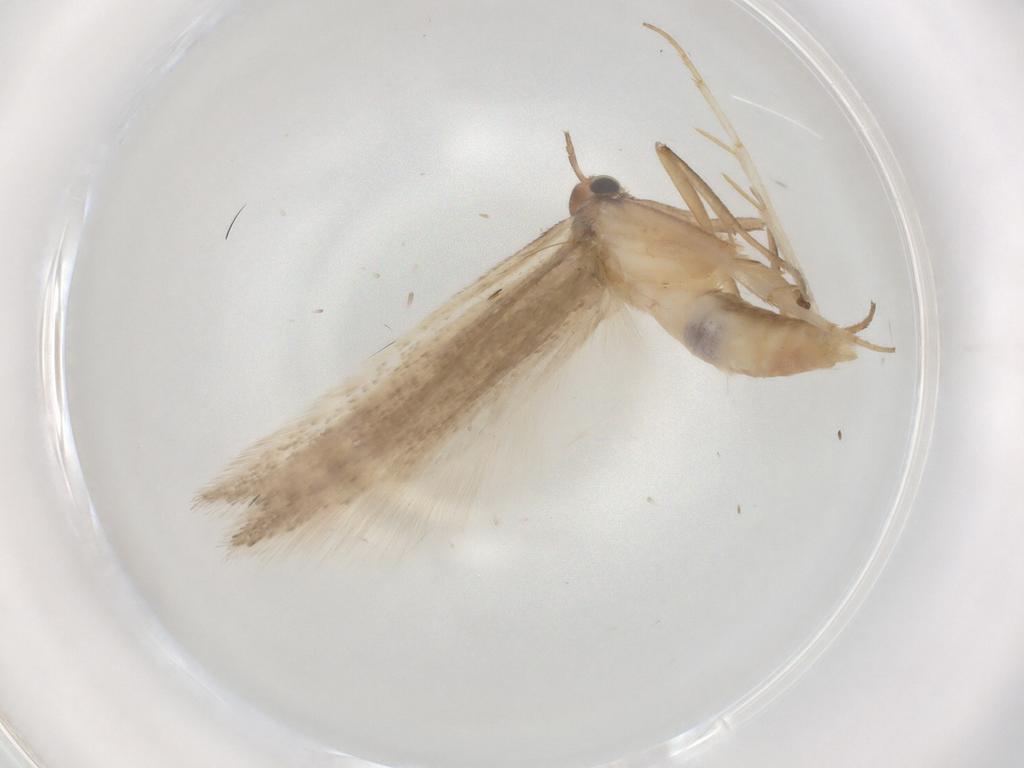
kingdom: Animalia
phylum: Arthropoda
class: Insecta
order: Lepidoptera
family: Gelechiidae
